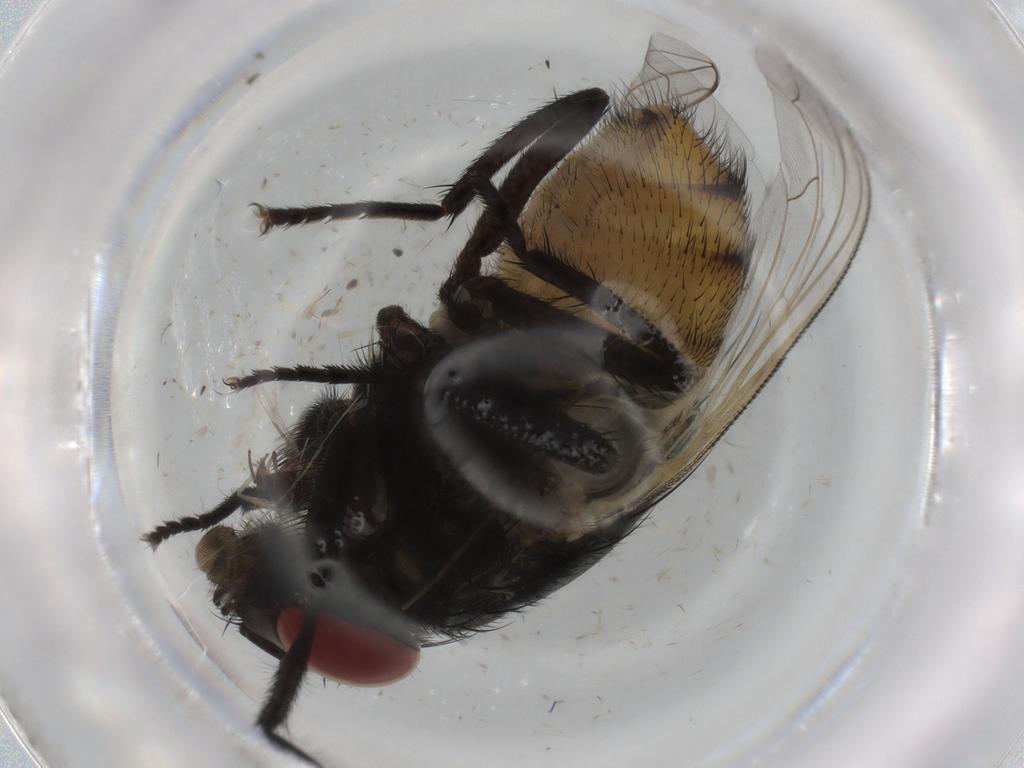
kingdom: Animalia
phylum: Arthropoda
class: Insecta
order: Diptera
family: Muscidae
